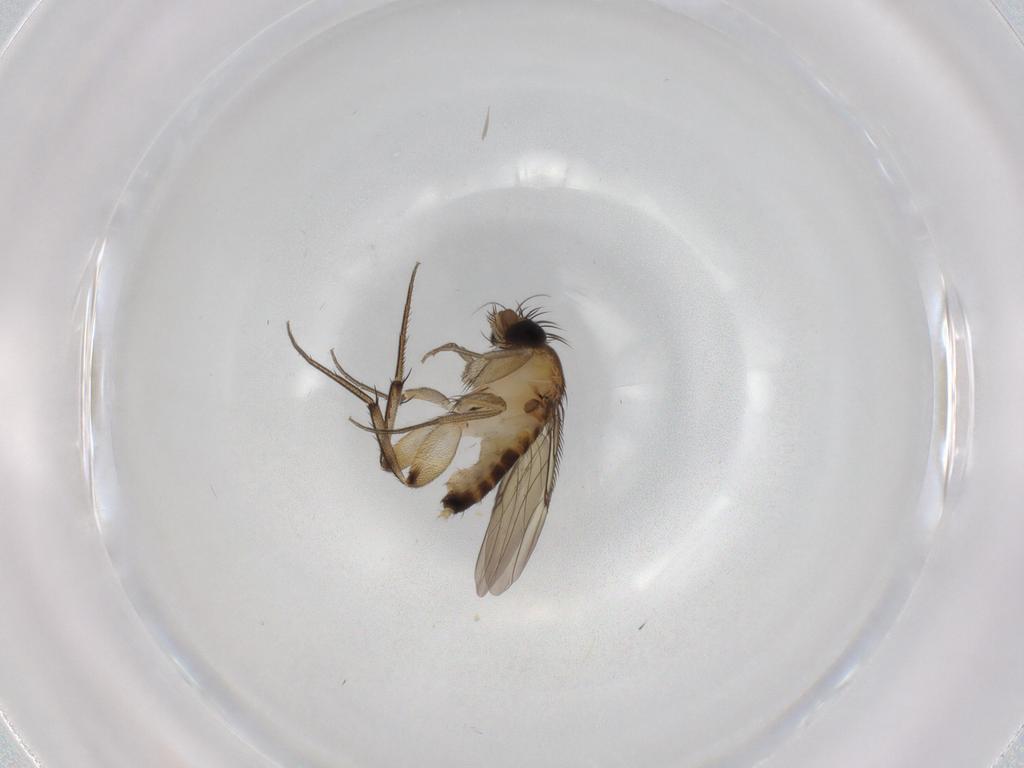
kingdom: Animalia
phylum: Arthropoda
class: Insecta
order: Diptera
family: Phoridae
